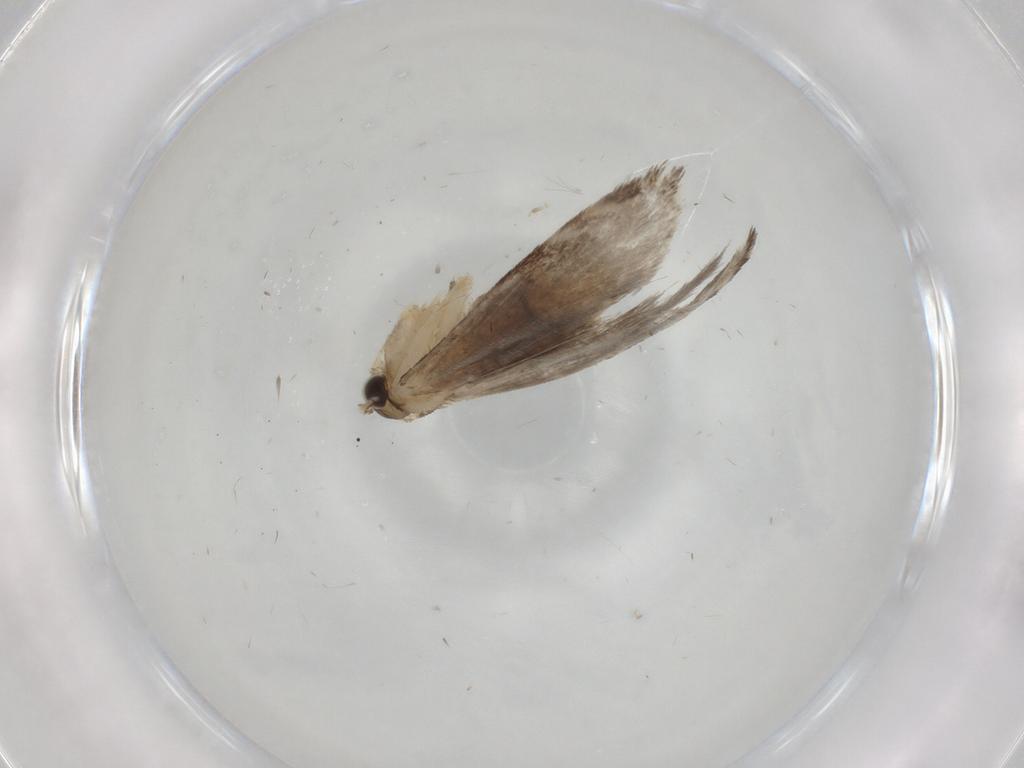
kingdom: Animalia
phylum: Arthropoda
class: Insecta
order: Lepidoptera
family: Tineidae
